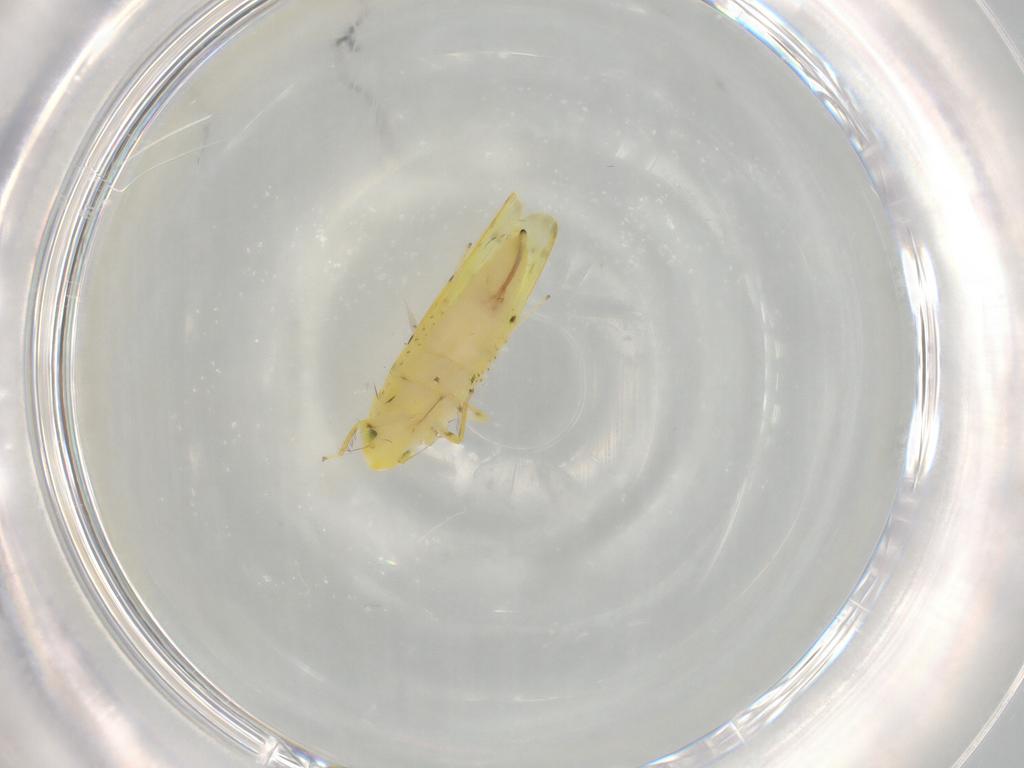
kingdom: Animalia
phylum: Arthropoda
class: Insecta
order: Hemiptera
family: Cicadellidae
